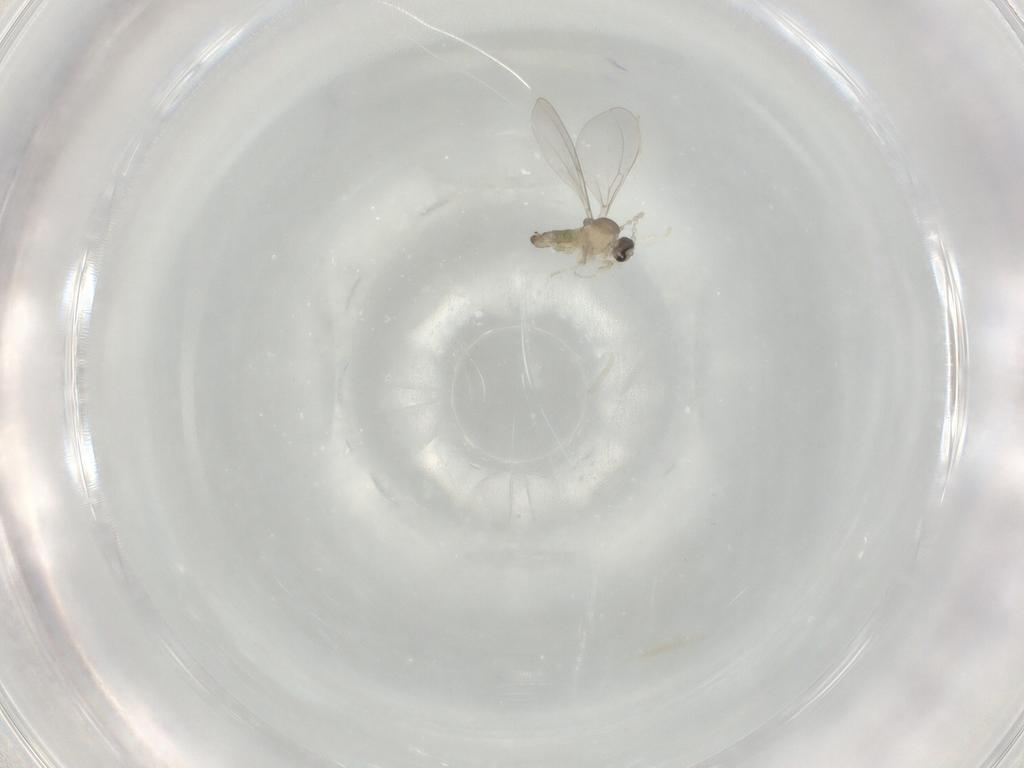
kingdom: Animalia
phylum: Arthropoda
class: Insecta
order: Diptera
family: Cecidomyiidae
